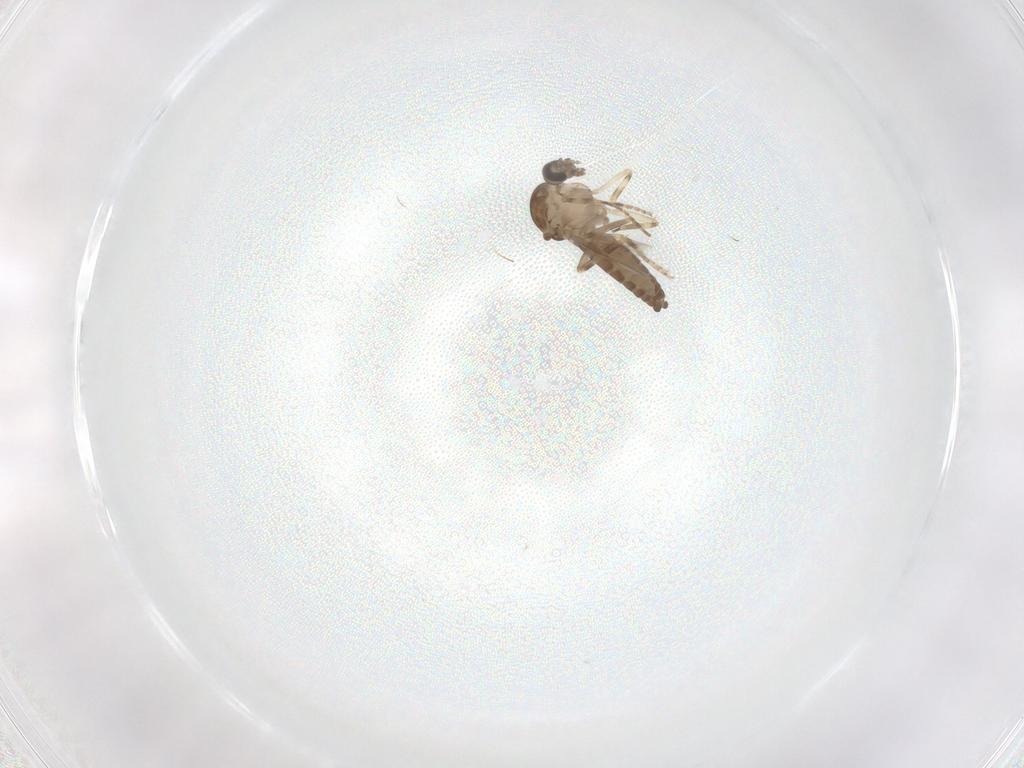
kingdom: Animalia
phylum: Arthropoda
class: Insecta
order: Diptera
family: Ceratopogonidae
